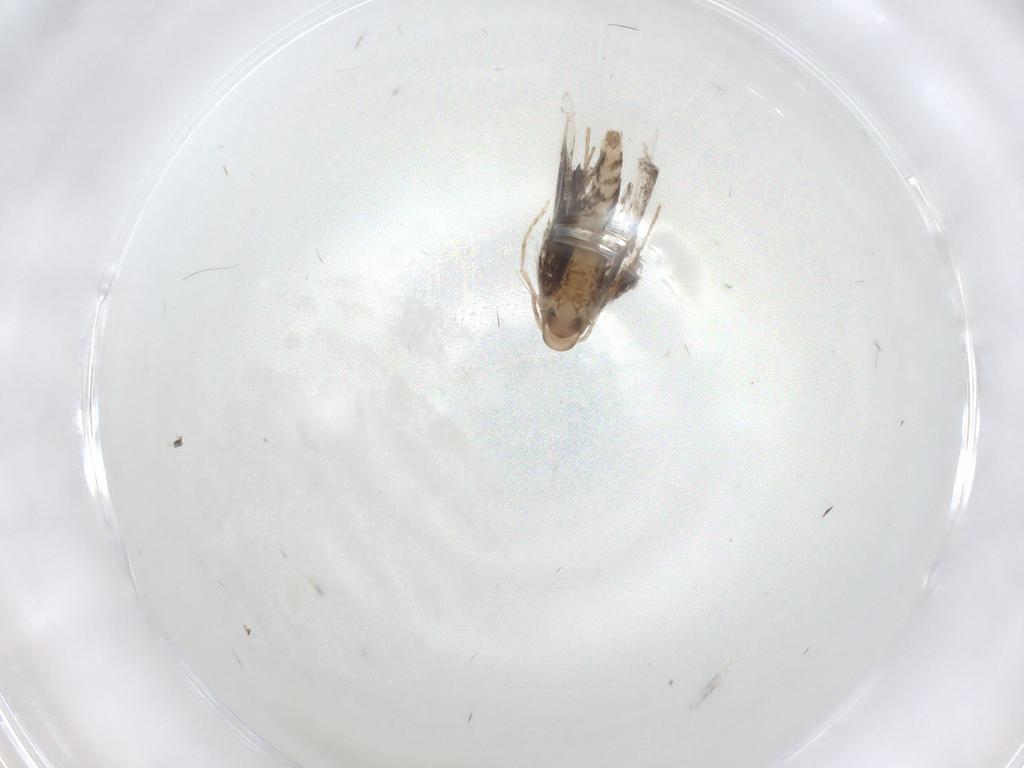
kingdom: Animalia
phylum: Arthropoda
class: Insecta
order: Lepidoptera
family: Gracillariidae
